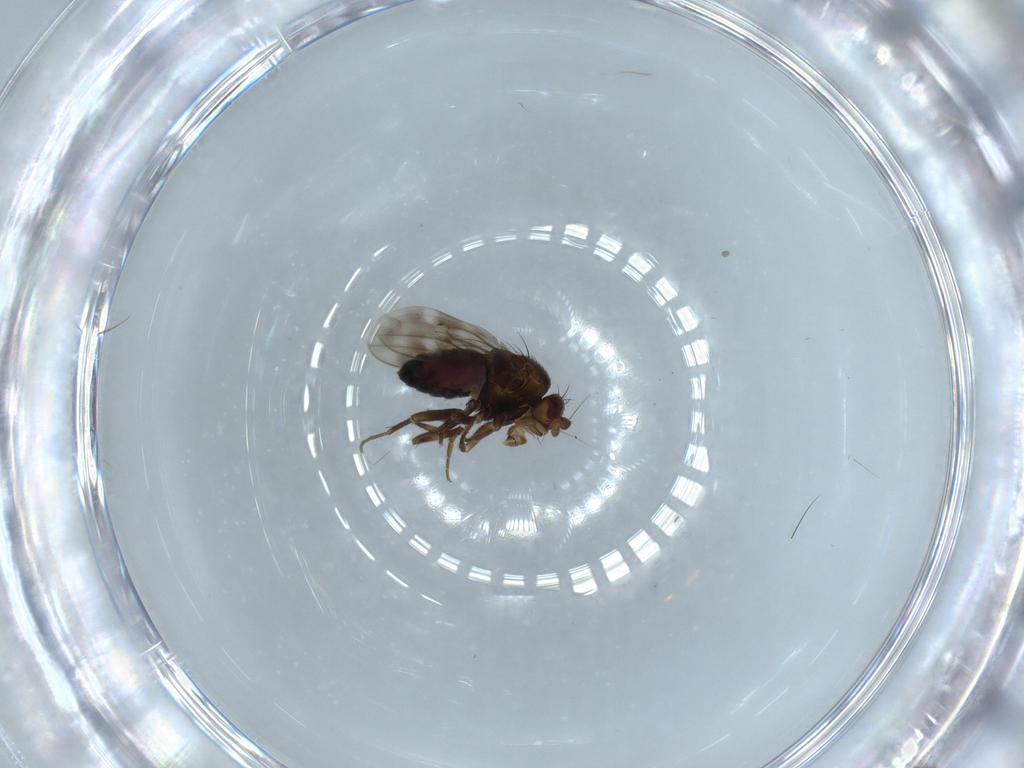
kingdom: Animalia
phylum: Arthropoda
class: Insecta
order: Diptera
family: Sphaeroceridae
